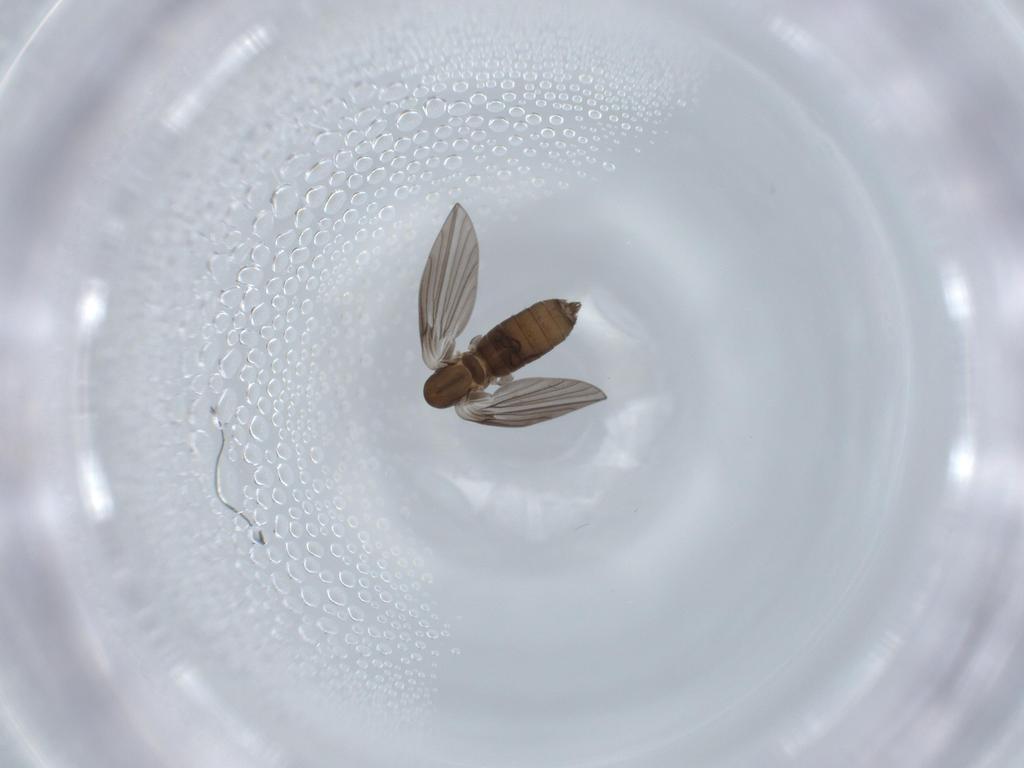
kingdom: Animalia
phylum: Arthropoda
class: Insecta
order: Diptera
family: Psychodidae
